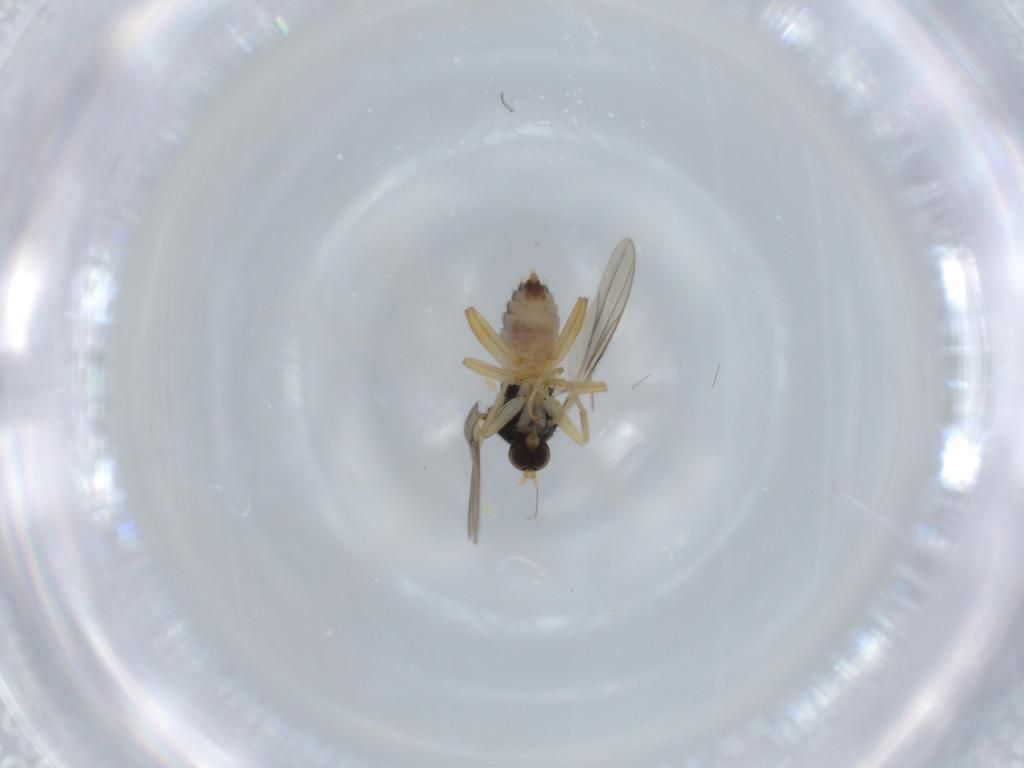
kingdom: Animalia
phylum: Arthropoda
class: Insecta
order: Diptera
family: Hybotidae
